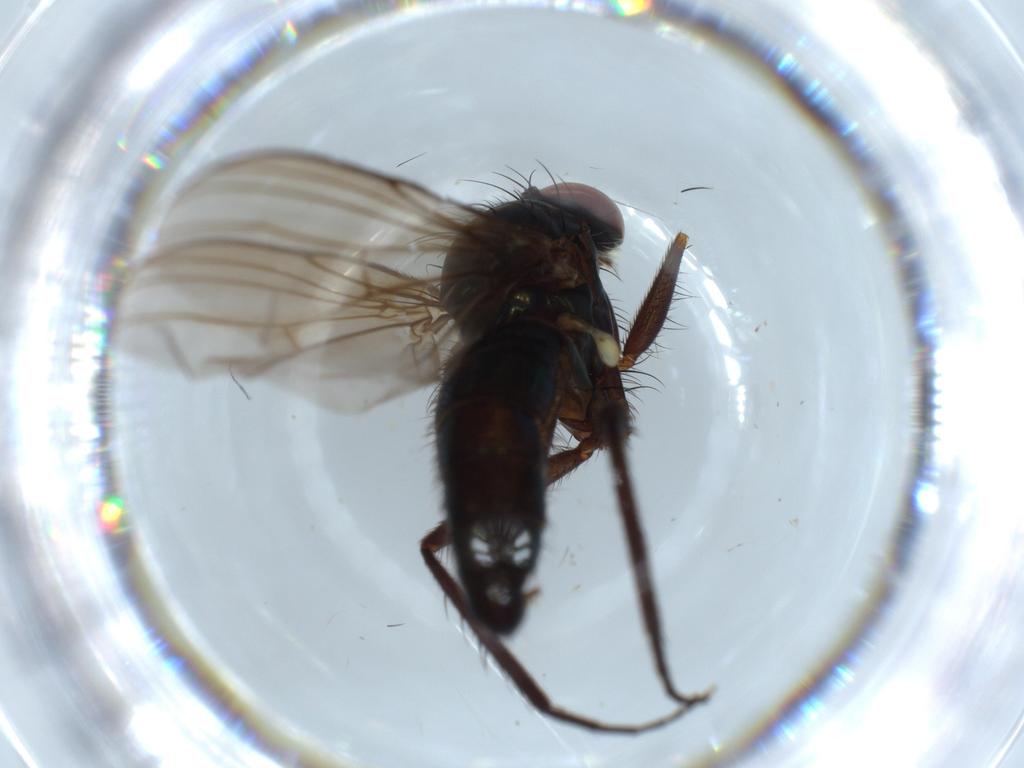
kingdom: Animalia
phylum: Arthropoda
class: Insecta
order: Diptera
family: Dolichopodidae
